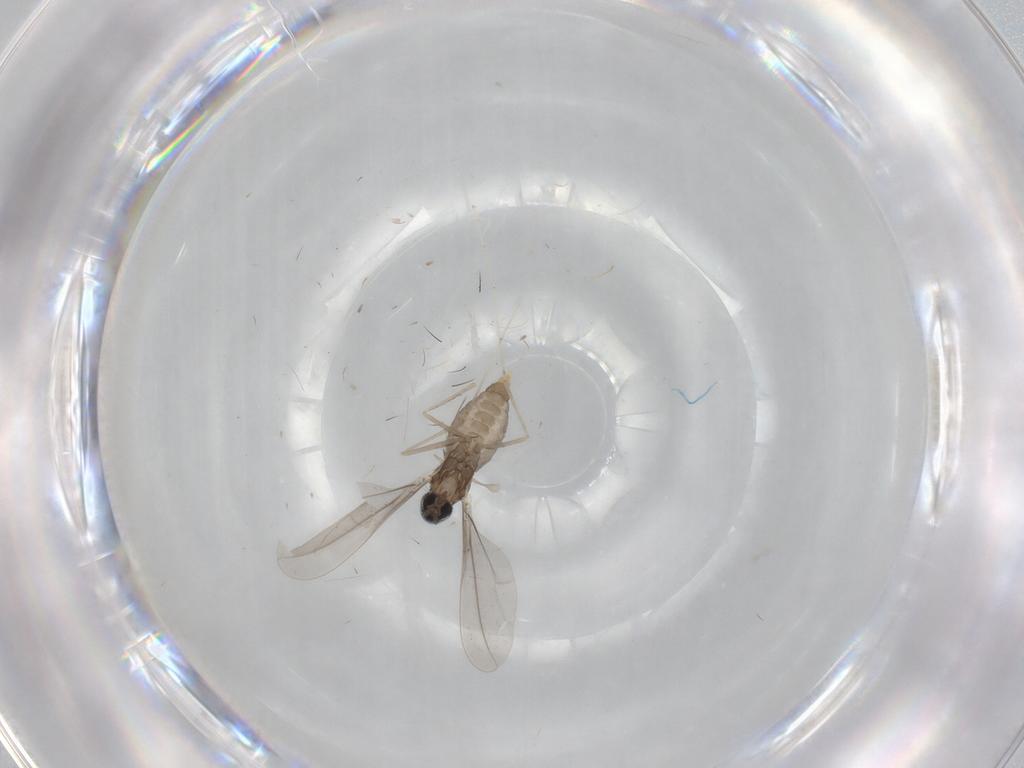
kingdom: Animalia
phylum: Arthropoda
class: Insecta
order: Diptera
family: Cecidomyiidae
